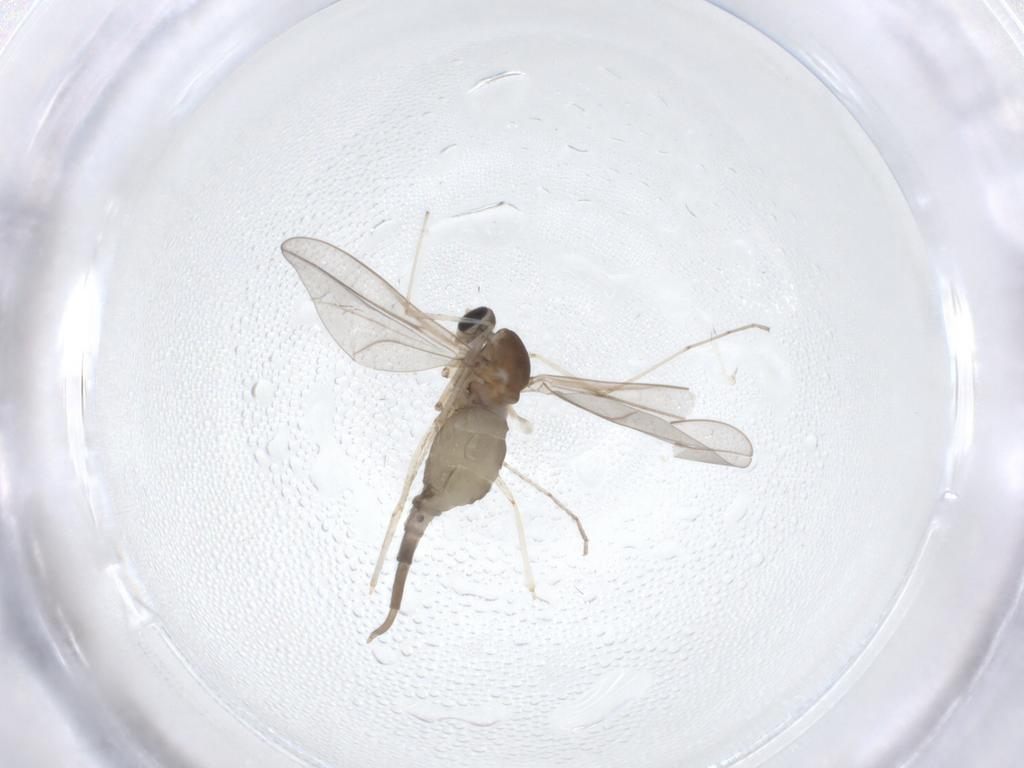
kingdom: Animalia
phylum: Arthropoda
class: Insecta
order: Diptera
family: Cecidomyiidae
